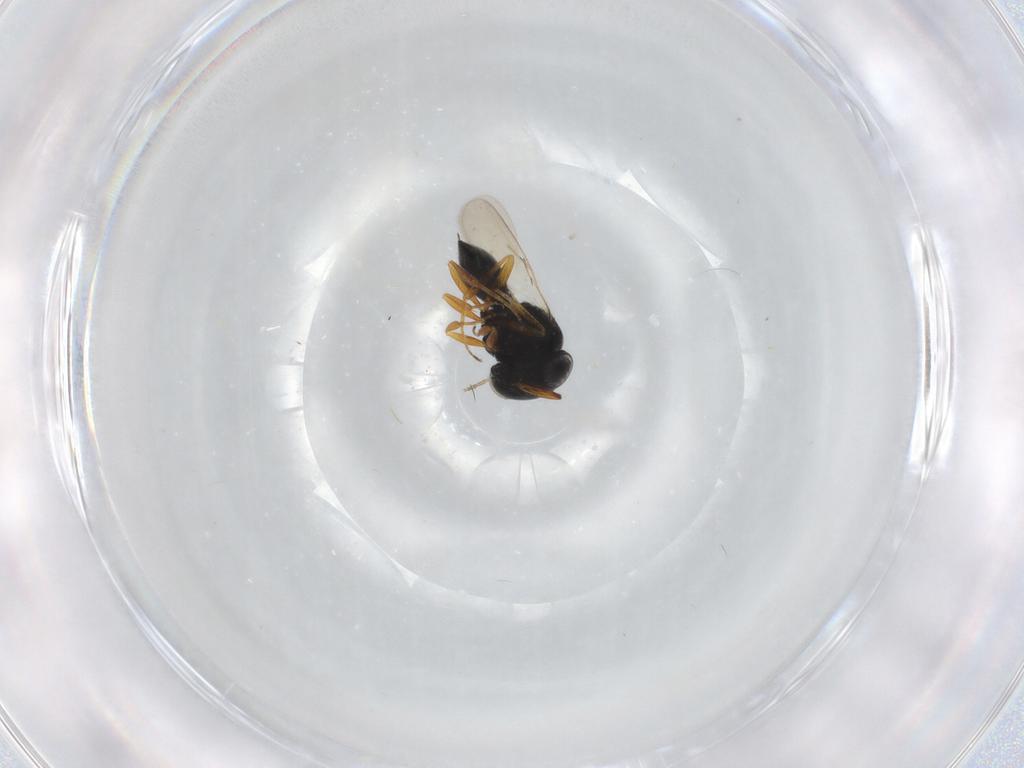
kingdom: Animalia
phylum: Arthropoda
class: Insecta
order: Hymenoptera
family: Scelionidae
